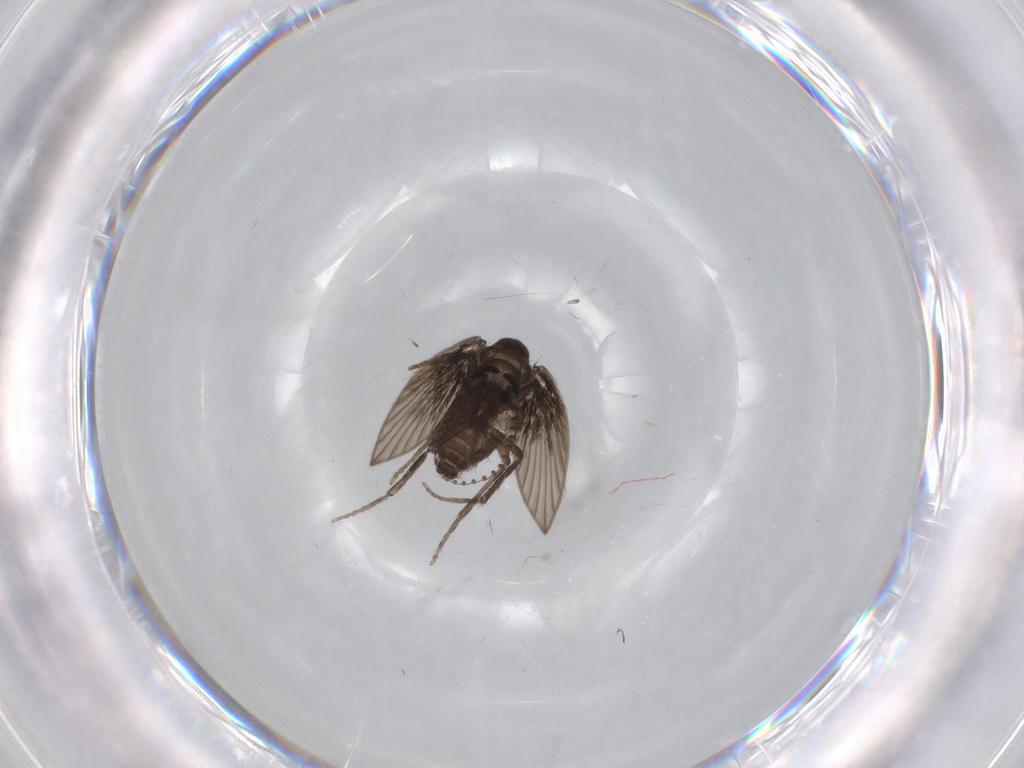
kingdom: Animalia
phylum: Arthropoda
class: Insecta
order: Diptera
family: Psychodidae
